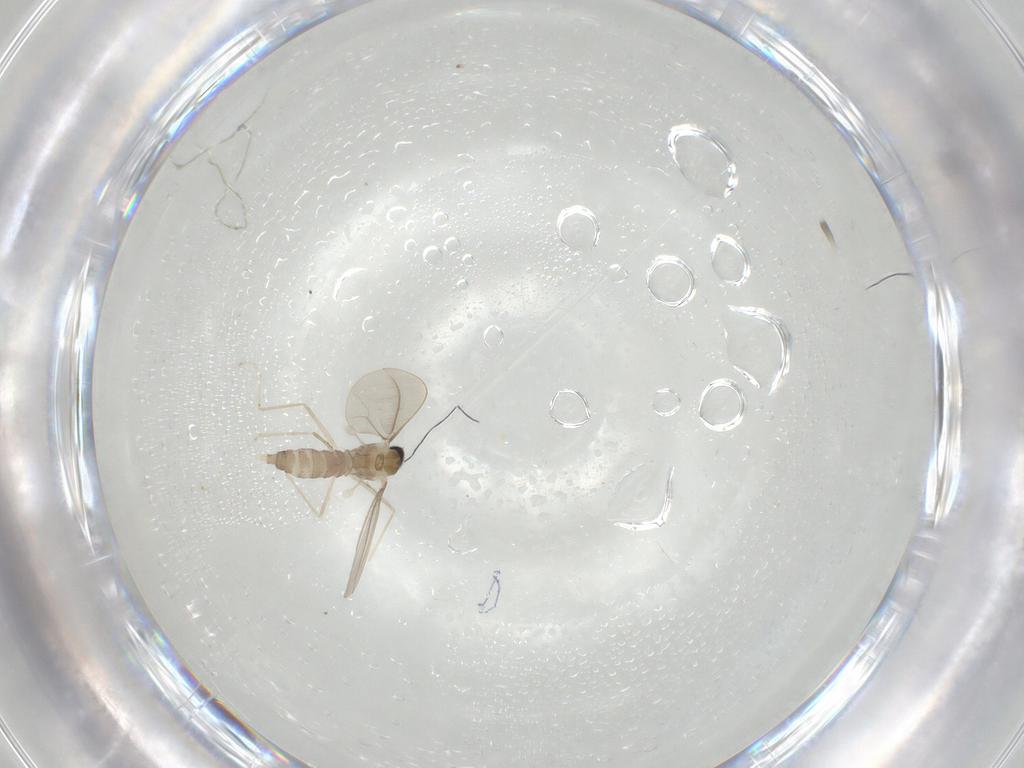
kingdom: Animalia
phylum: Arthropoda
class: Insecta
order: Diptera
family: Cecidomyiidae
